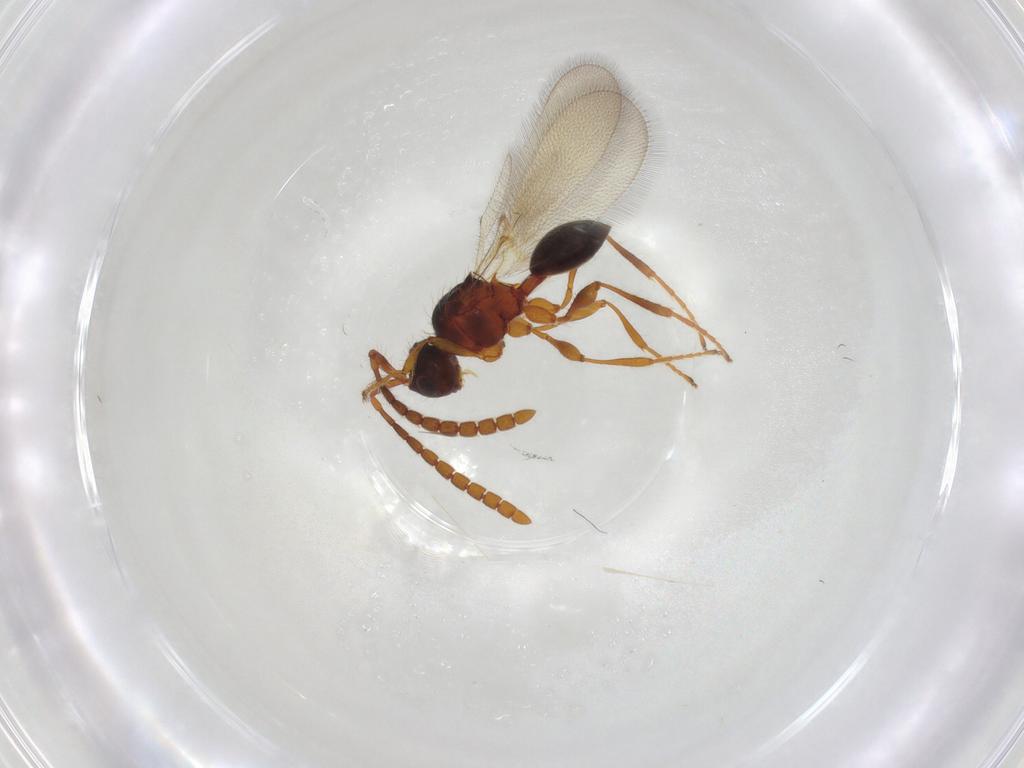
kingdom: Animalia
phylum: Arthropoda
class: Insecta
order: Hymenoptera
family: Diapriidae
